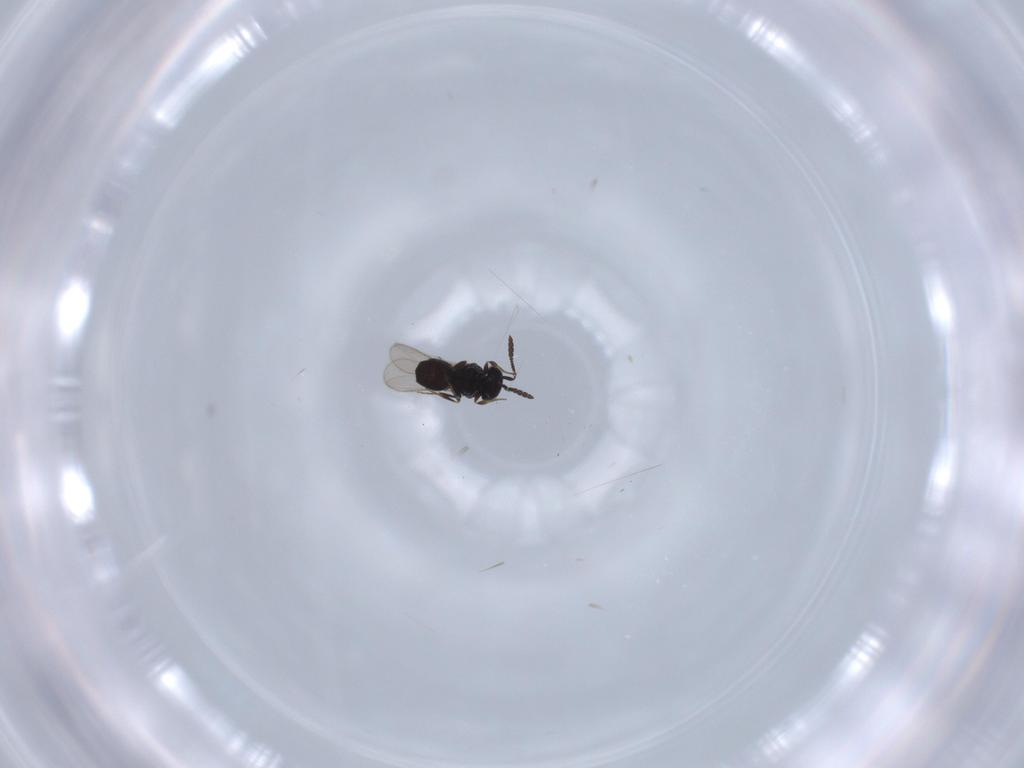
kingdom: Animalia
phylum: Arthropoda
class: Insecta
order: Hymenoptera
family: Scelionidae
